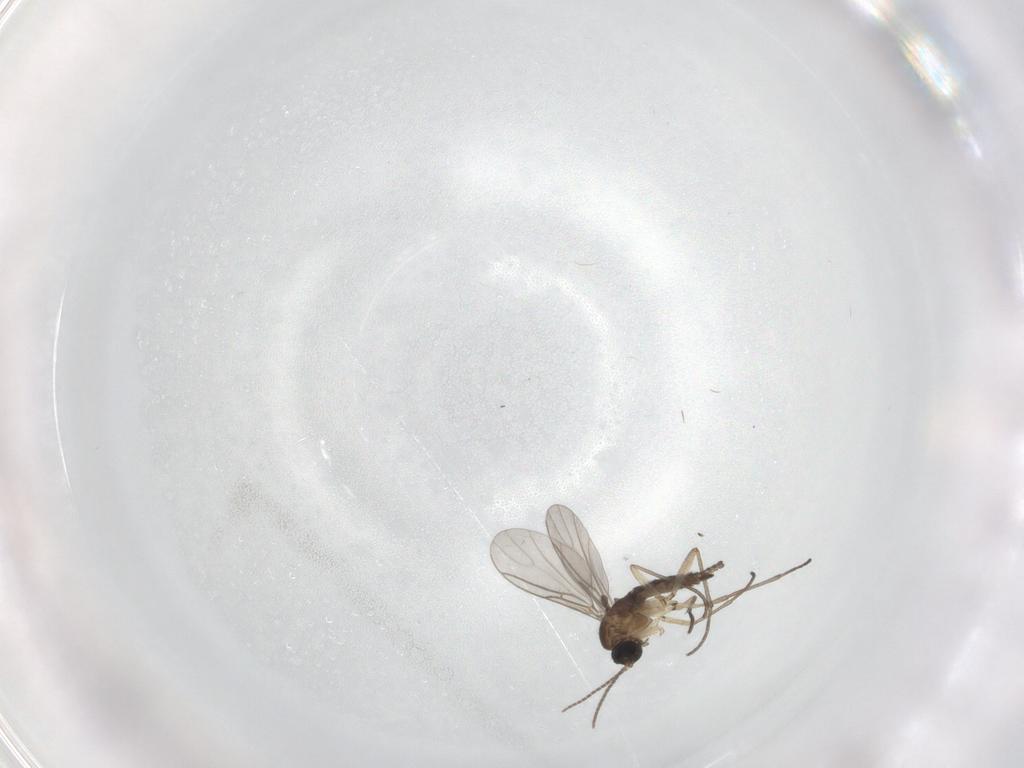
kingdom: Animalia
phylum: Arthropoda
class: Insecta
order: Diptera
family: Sciaridae
